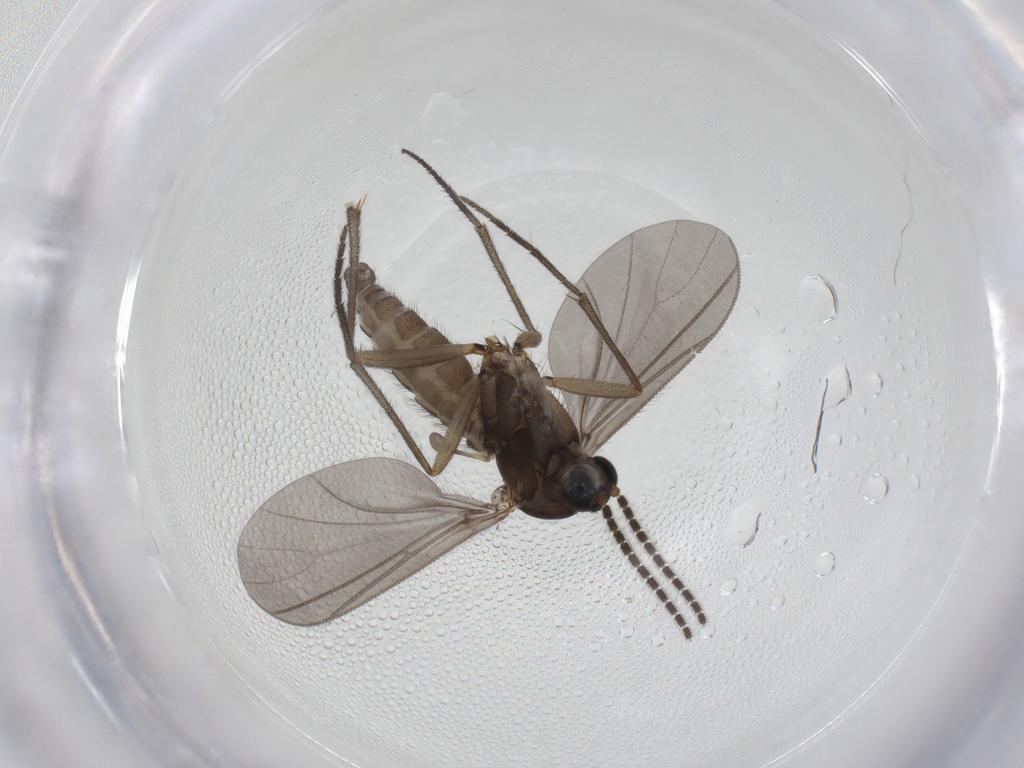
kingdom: Animalia
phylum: Arthropoda
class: Insecta
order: Diptera
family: Sciaridae
